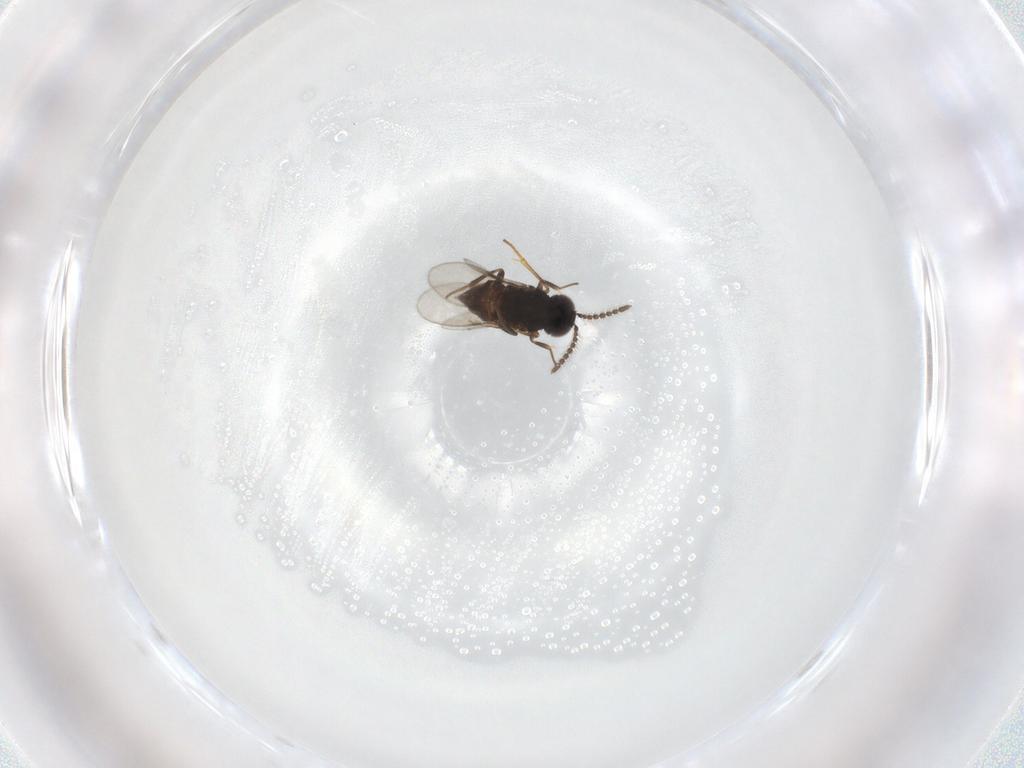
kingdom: Animalia
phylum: Arthropoda
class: Insecta
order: Hymenoptera
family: Encyrtidae
